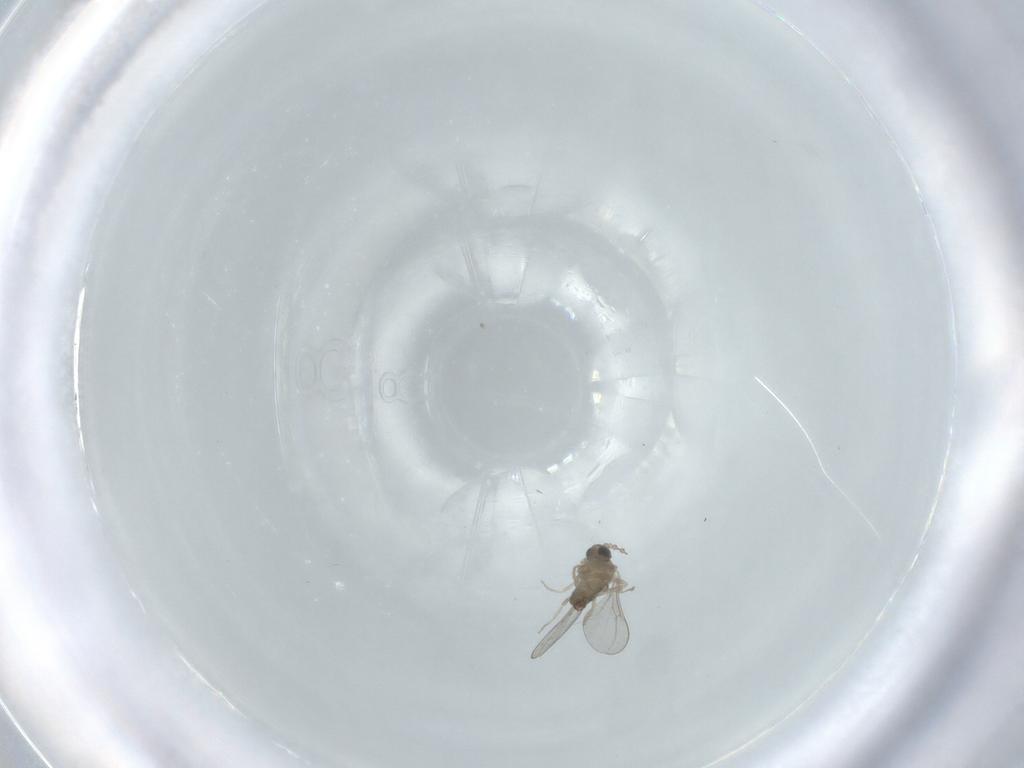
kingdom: Animalia
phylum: Arthropoda
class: Insecta
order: Diptera
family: Cecidomyiidae
